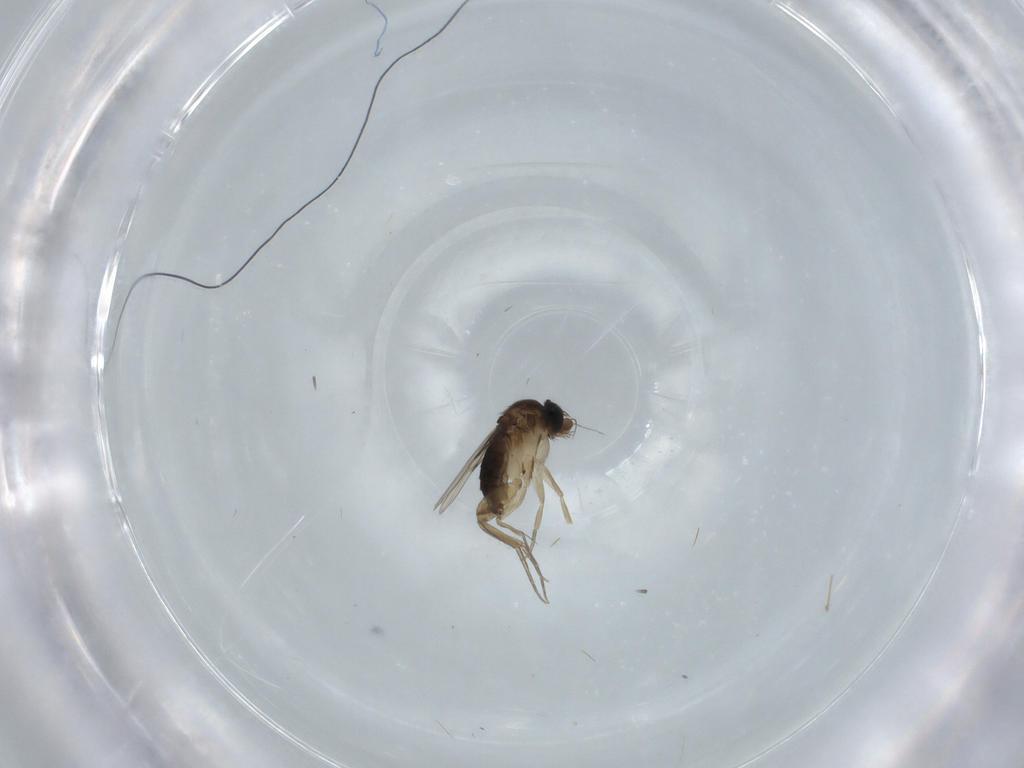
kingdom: Animalia
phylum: Arthropoda
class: Insecta
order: Diptera
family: Phoridae
